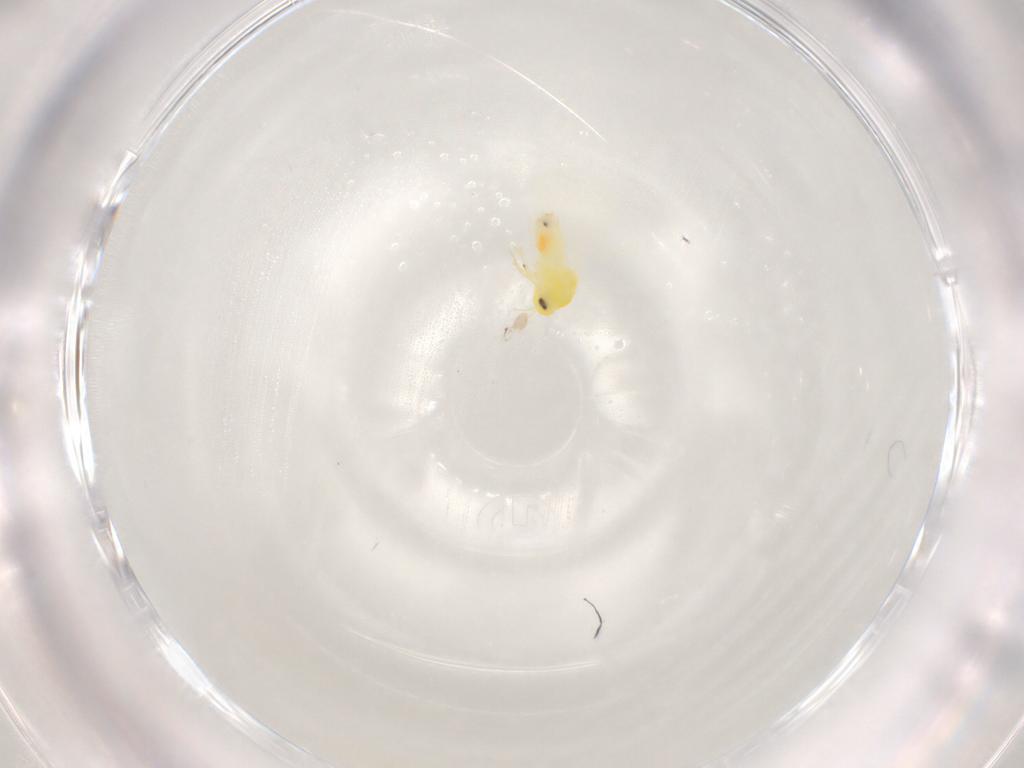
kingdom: Animalia
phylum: Arthropoda
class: Insecta
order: Hemiptera
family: Aleyrodidae
